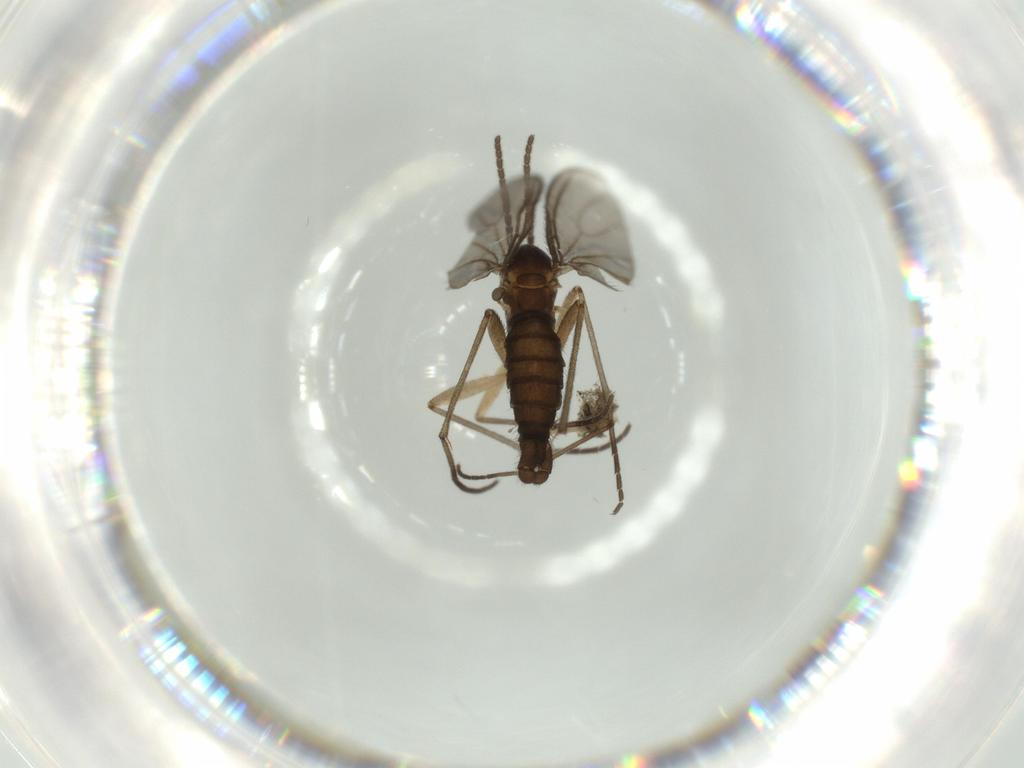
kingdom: Animalia
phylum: Arthropoda
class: Insecta
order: Diptera
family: Sciaridae
